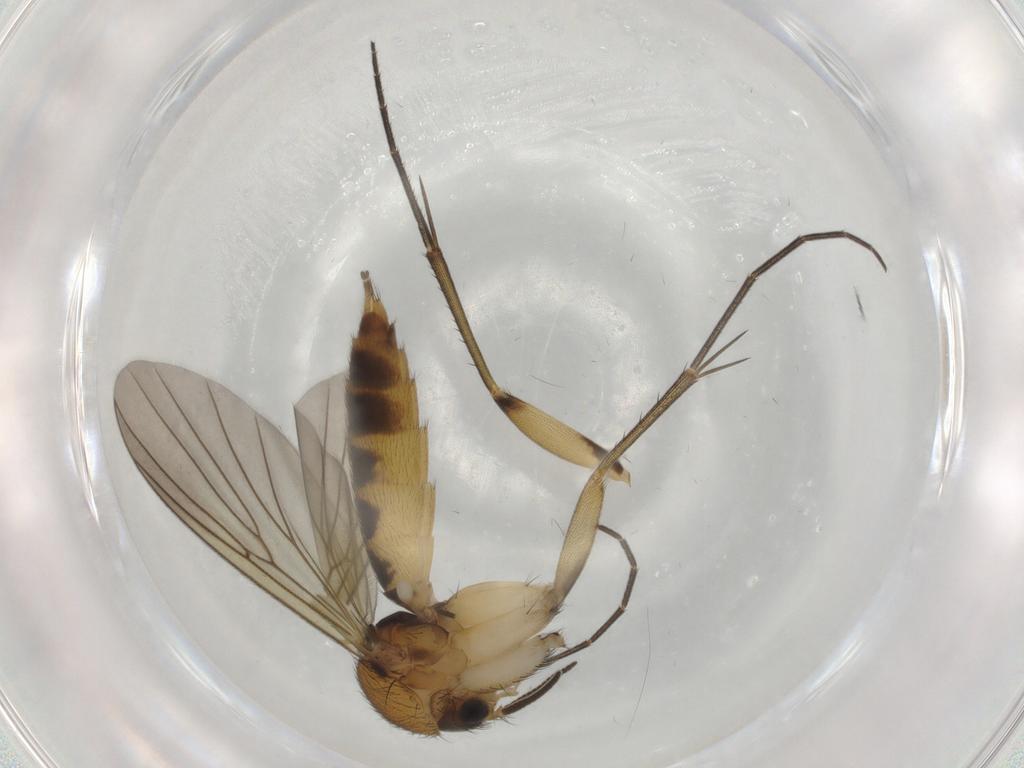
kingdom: Animalia
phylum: Arthropoda
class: Insecta
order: Diptera
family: Mycetophilidae
